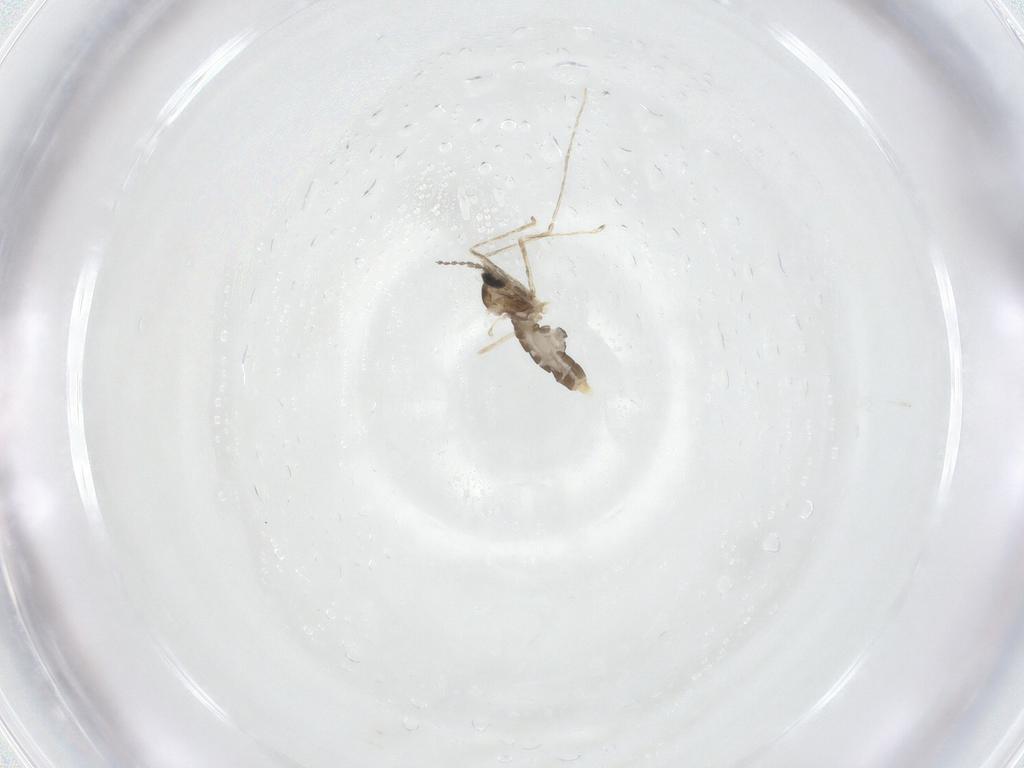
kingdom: Animalia
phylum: Arthropoda
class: Insecta
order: Diptera
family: Cecidomyiidae
